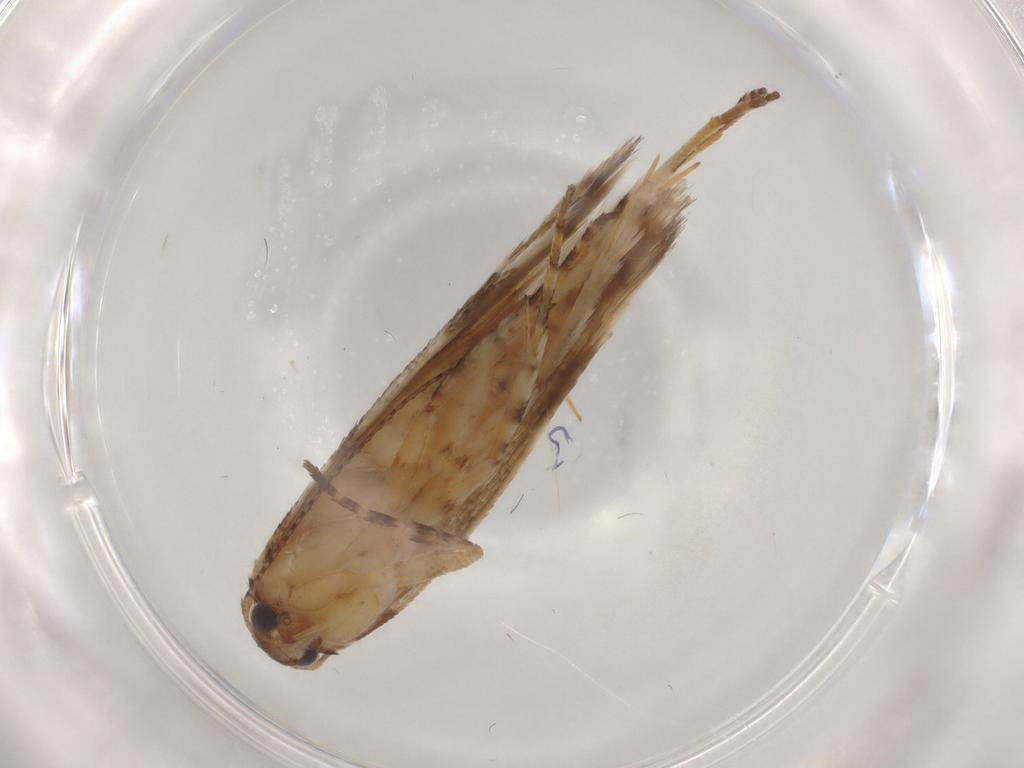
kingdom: Animalia
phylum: Arthropoda
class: Insecta
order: Lepidoptera
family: Gelechiidae
